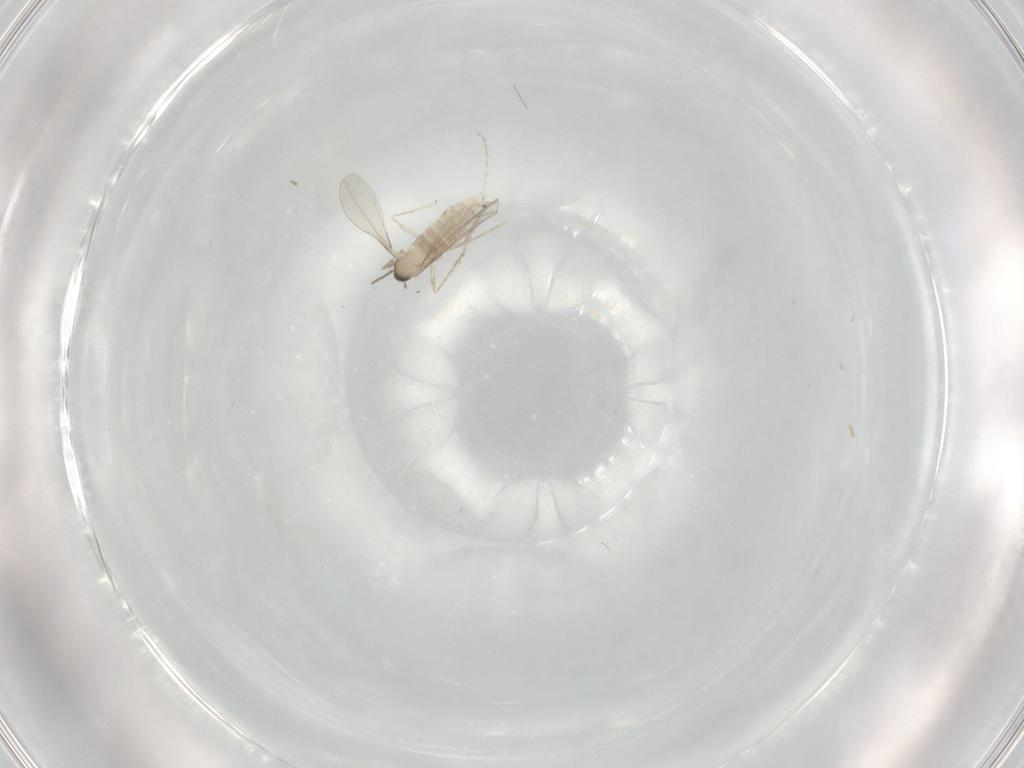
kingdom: Animalia
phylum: Arthropoda
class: Insecta
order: Diptera
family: Cecidomyiidae
